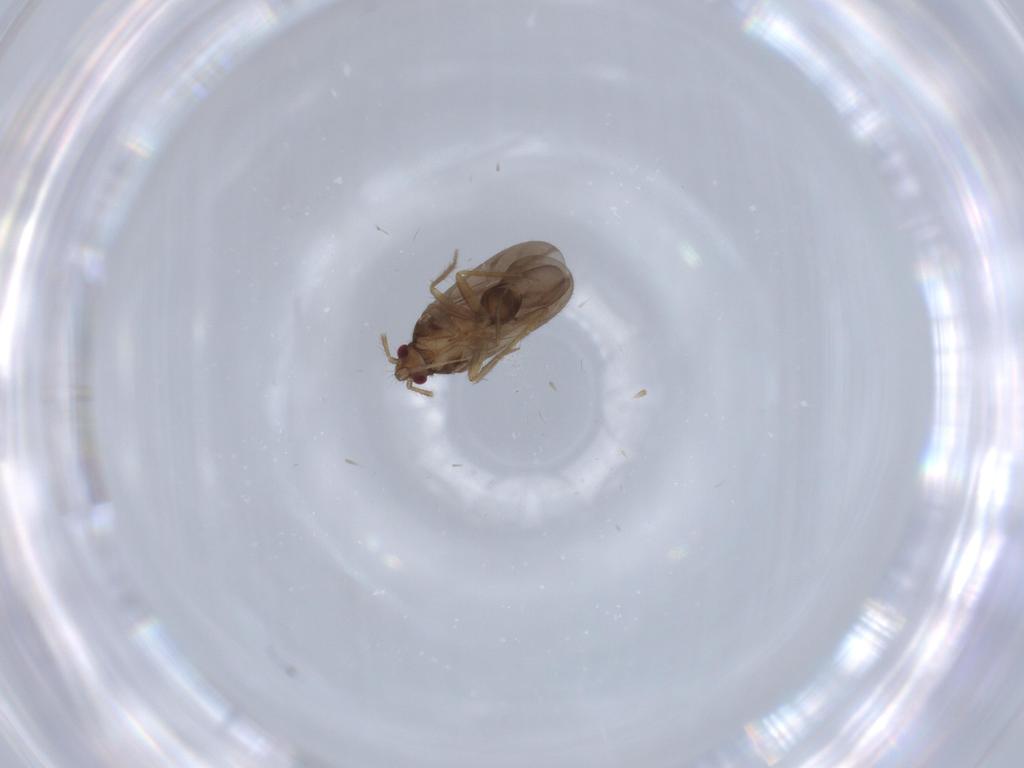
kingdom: Animalia
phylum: Arthropoda
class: Insecta
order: Hemiptera
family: Ceratocombidae
